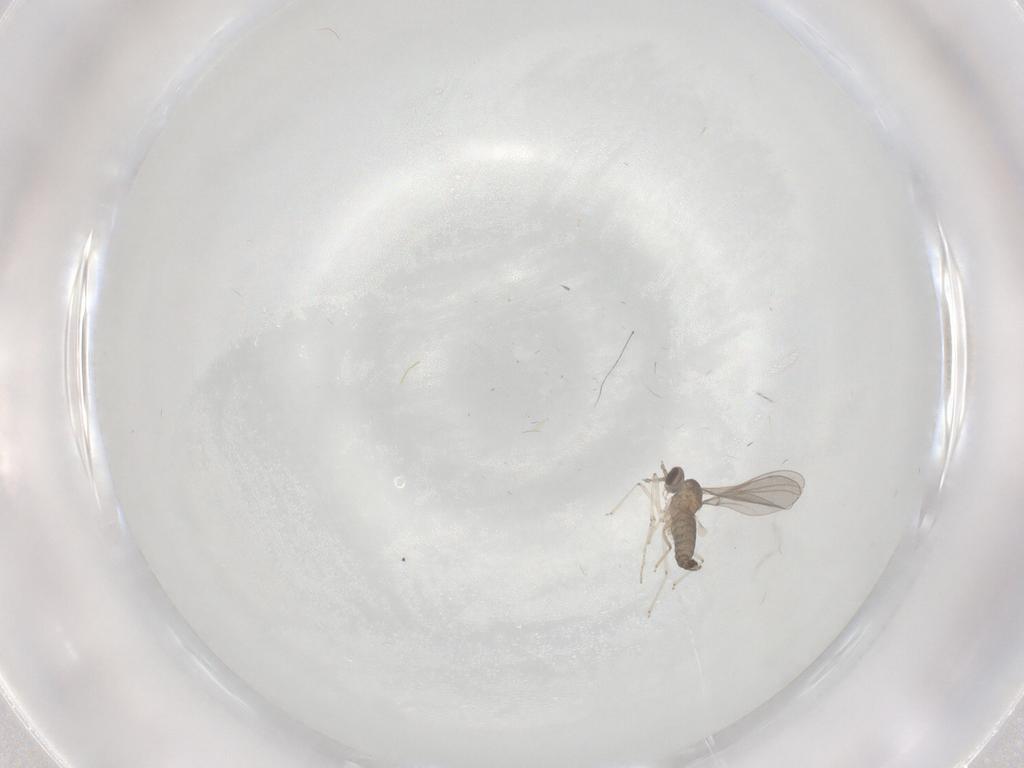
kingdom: Animalia
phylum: Arthropoda
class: Insecta
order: Diptera
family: Cecidomyiidae
